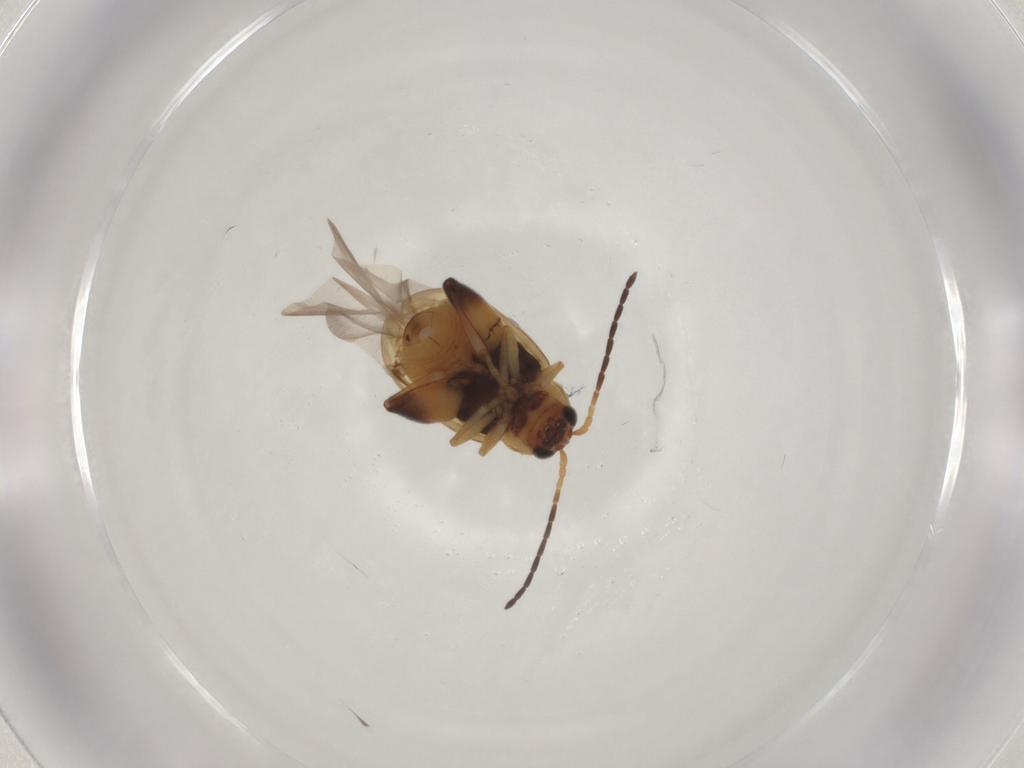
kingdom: Animalia
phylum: Arthropoda
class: Insecta
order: Coleoptera
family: Chrysomelidae
